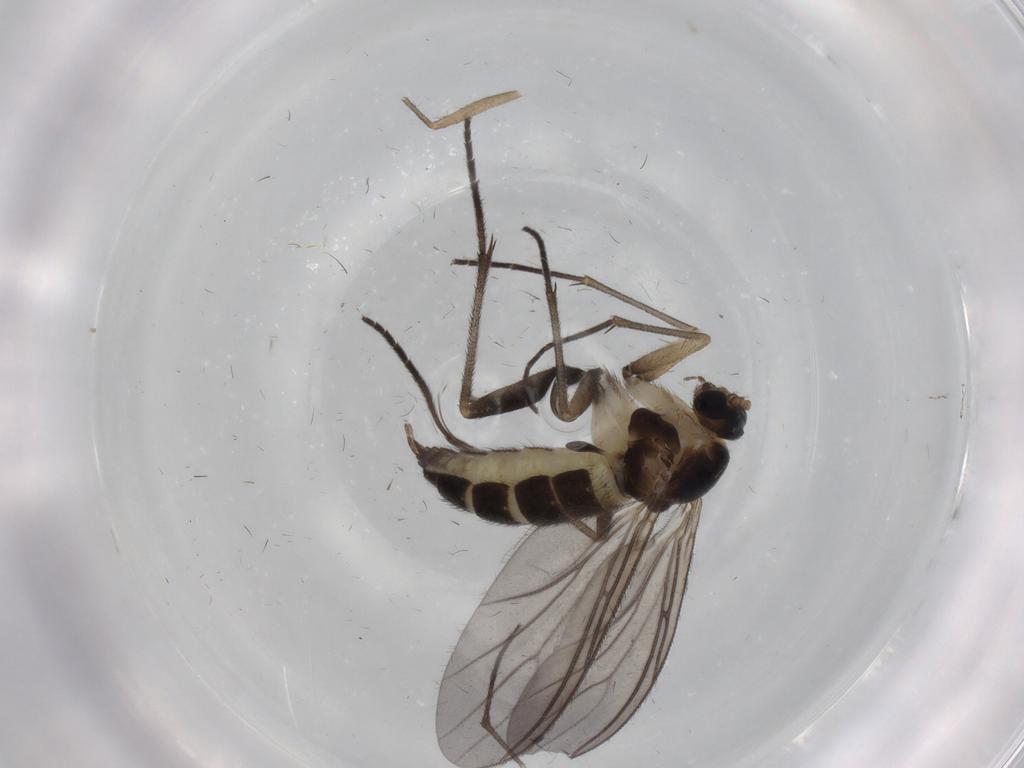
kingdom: Animalia
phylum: Arthropoda
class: Insecta
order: Diptera
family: Sciaridae
